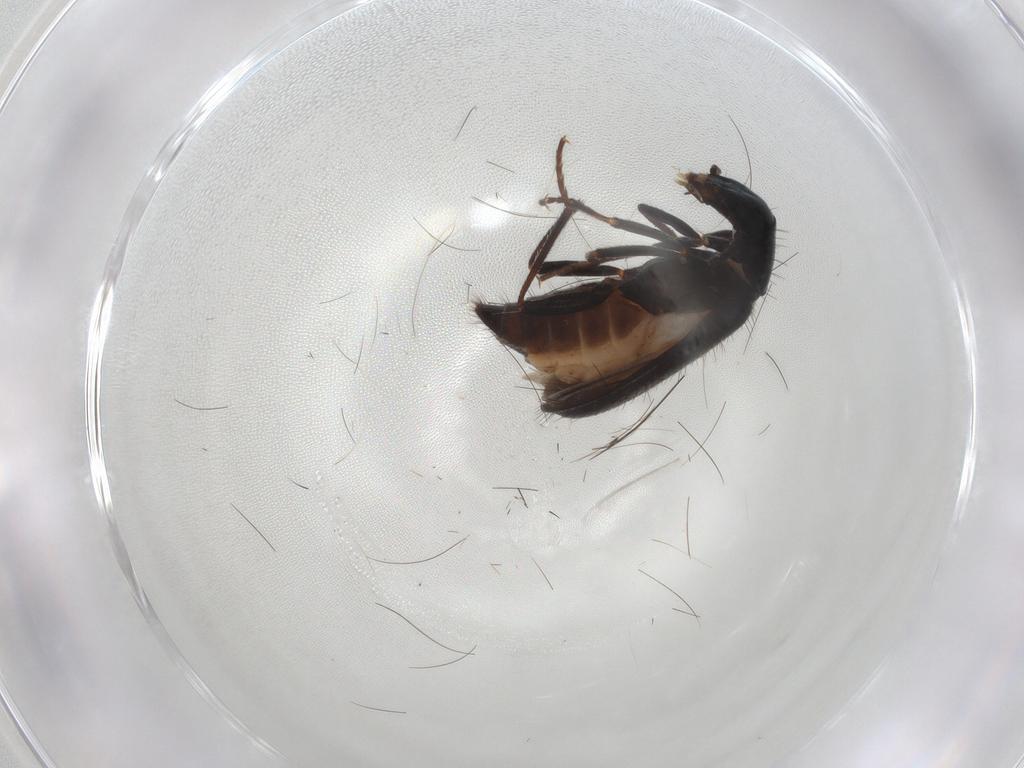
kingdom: Animalia
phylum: Arthropoda
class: Insecta
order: Coleoptera
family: Melyridae
